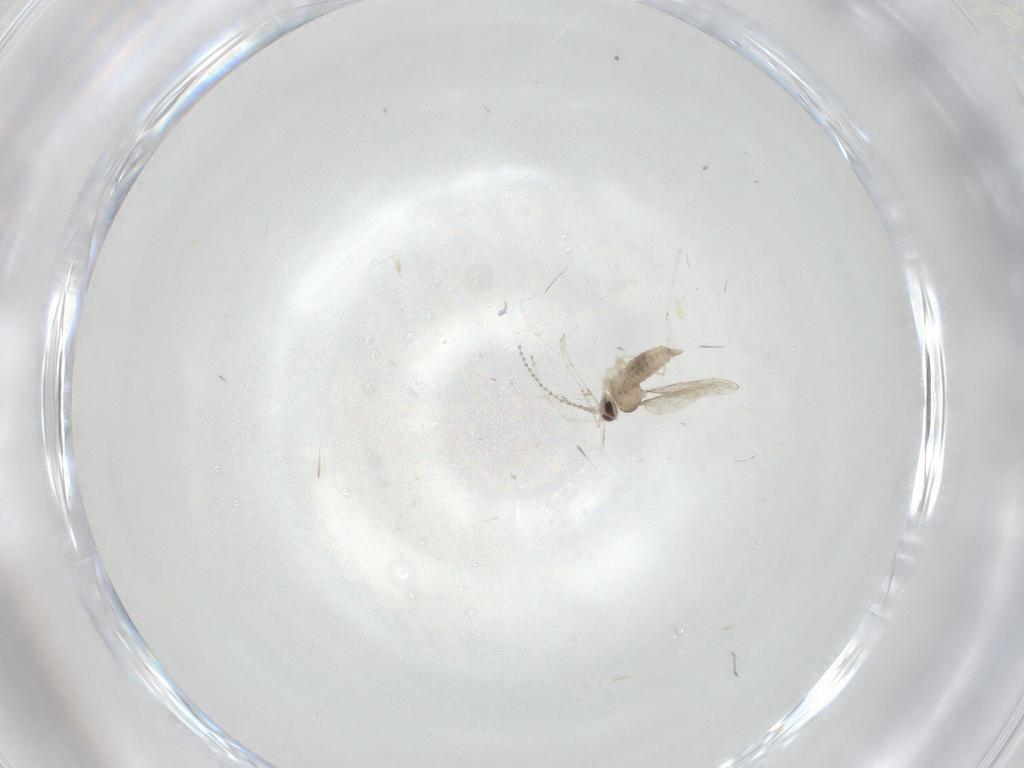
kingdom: Animalia
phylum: Arthropoda
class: Insecta
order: Diptera
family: Cecidomyiidae
